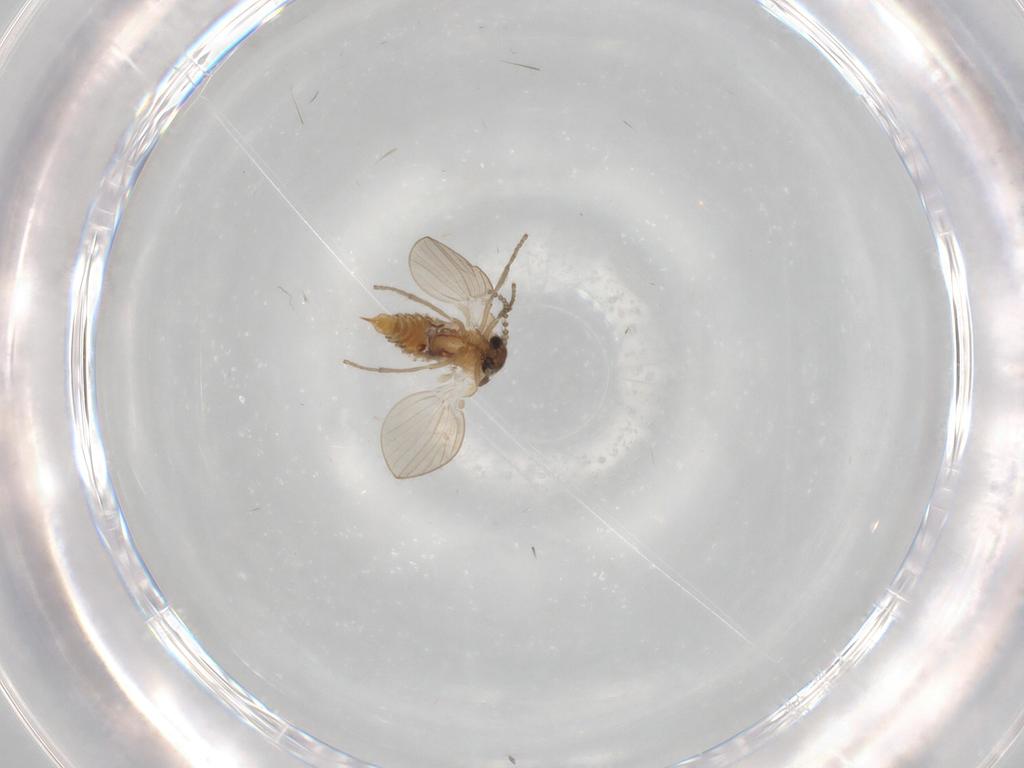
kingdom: Animalia
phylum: Arthropoda
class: Insecta
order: Diptera
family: Psychodidae
